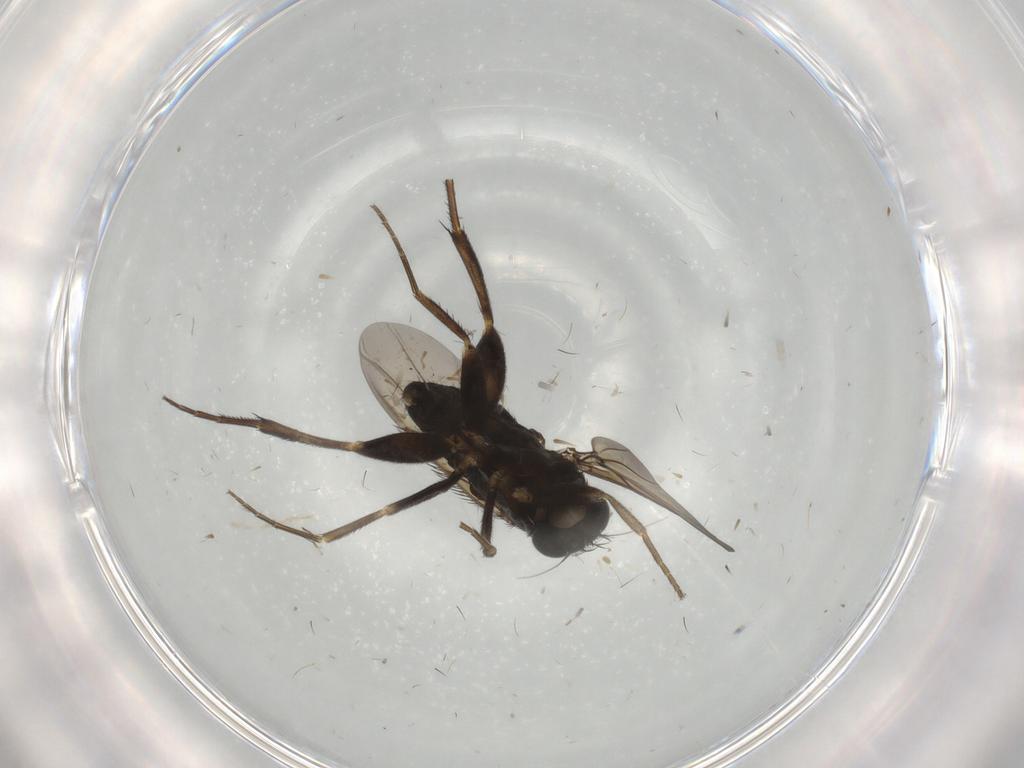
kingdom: Animalia
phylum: Arthropoda
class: Insecta
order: Diptera
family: Cecidomyiidae
